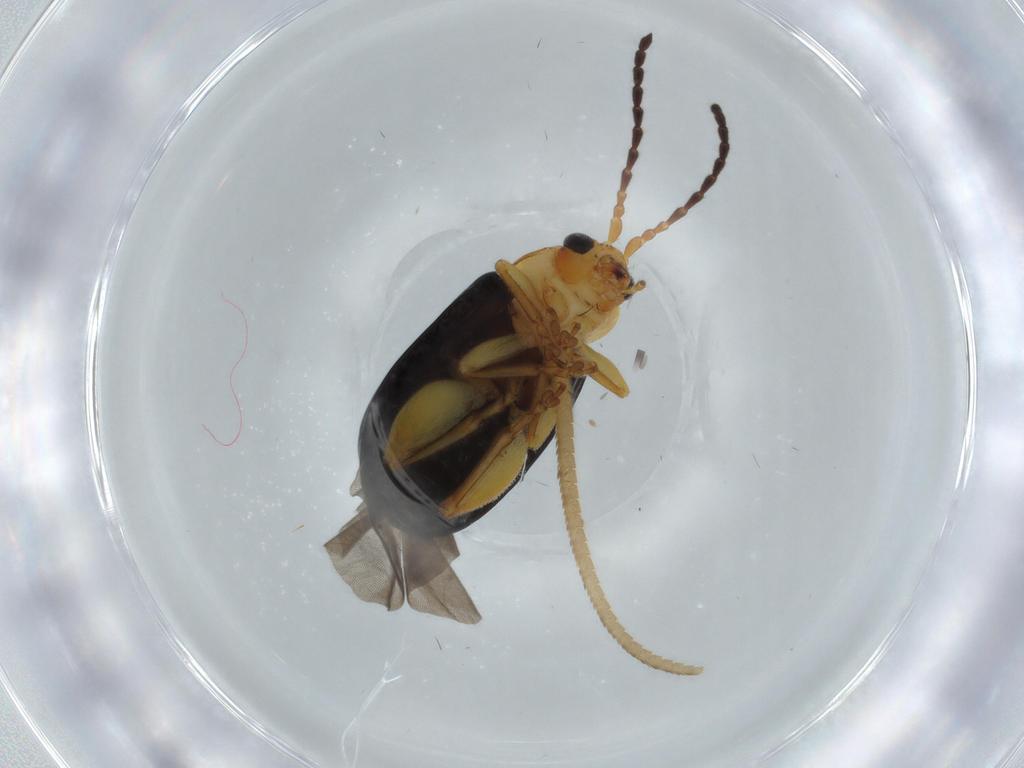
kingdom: Animalia
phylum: Arthropoda
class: Insecta
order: Coleoptera
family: Chrysomelidae
